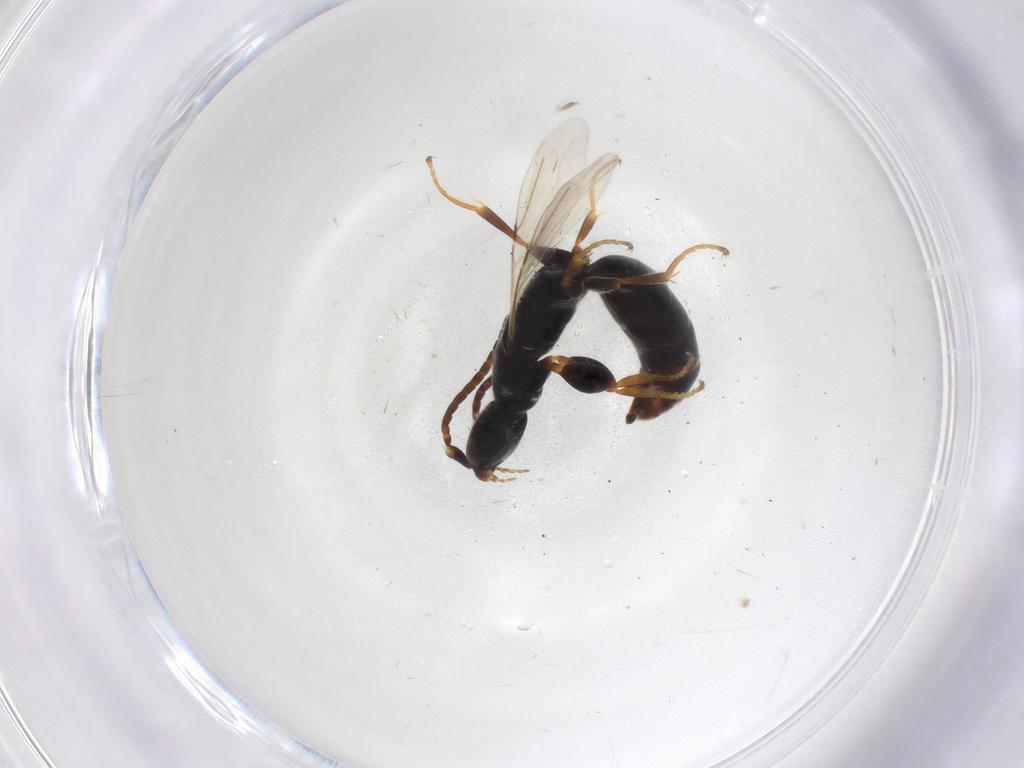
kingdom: Animalia
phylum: Arthropoda
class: Insecta
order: Hymenoptera
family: Bethylidae
